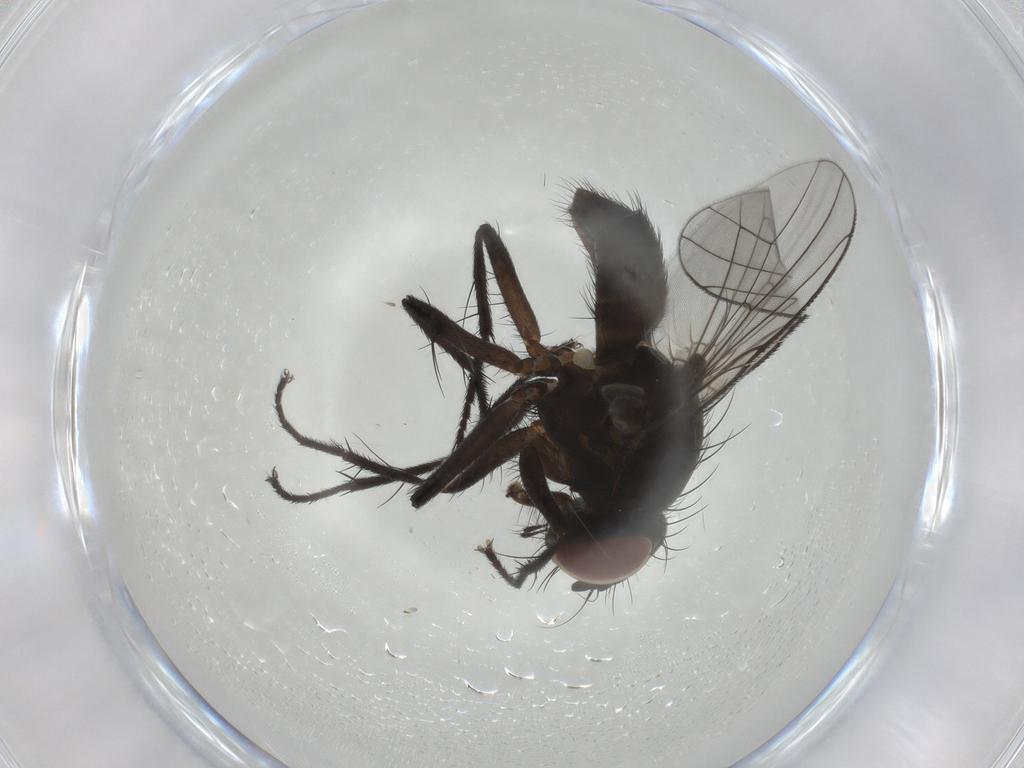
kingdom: Animalia
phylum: Arthropoda
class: Insecta
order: Diptera
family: Muscidae
